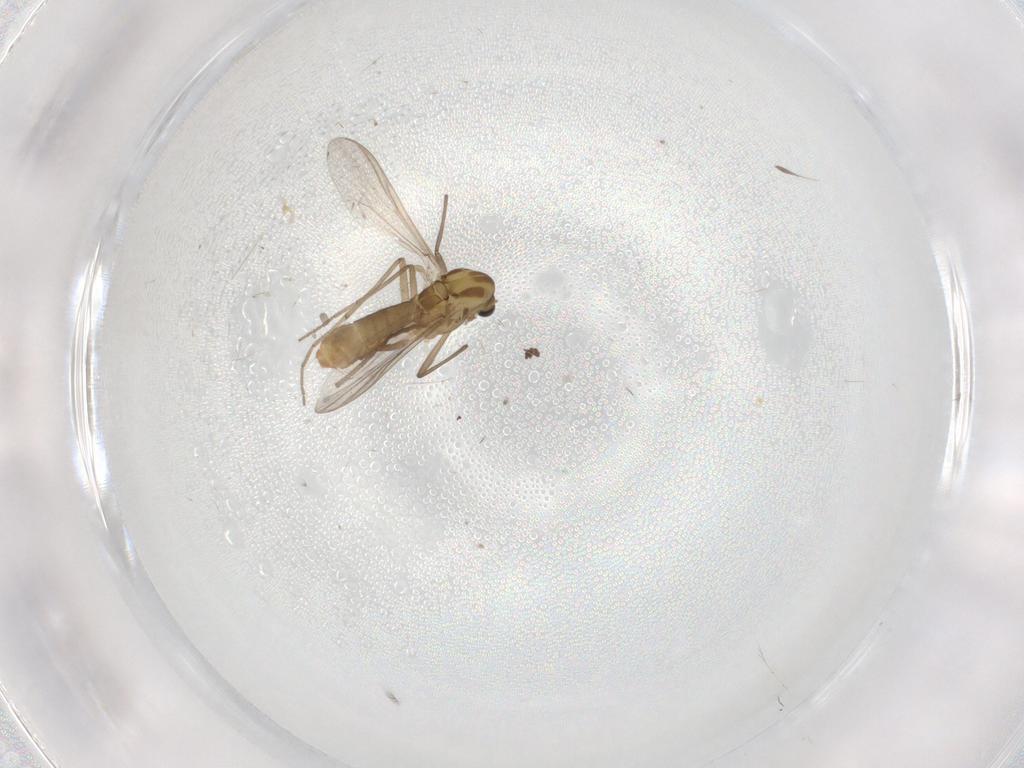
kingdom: Animalia
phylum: Arthropoda
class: Insecta
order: Diptera
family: Chironomidae
